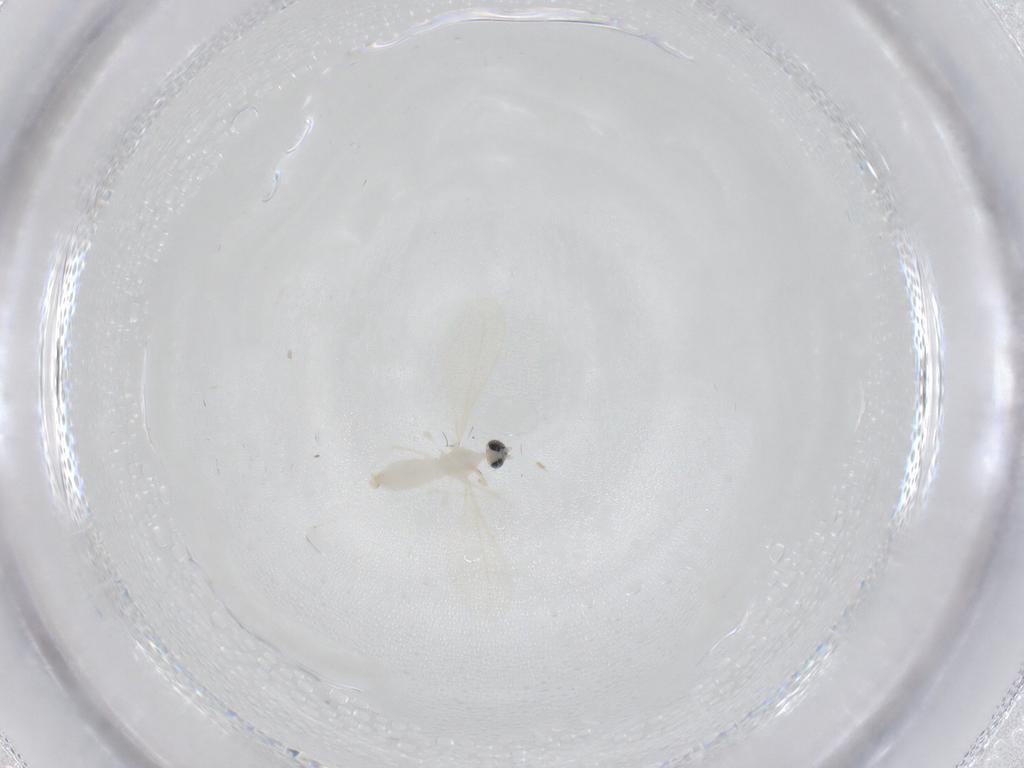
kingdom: Animalia
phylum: Arthropoda
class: Insecta
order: Diptera
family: Cecidomyiidae
